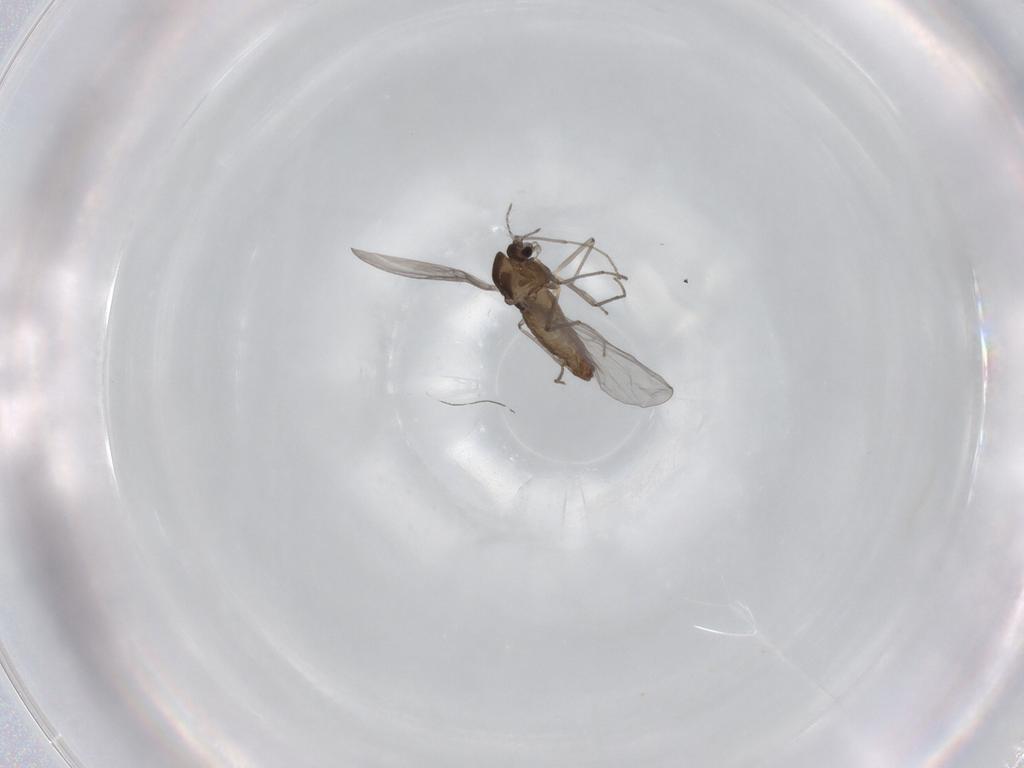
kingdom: Animalia
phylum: Arthropoda
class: Insecta
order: Diptera
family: Chironomidae
